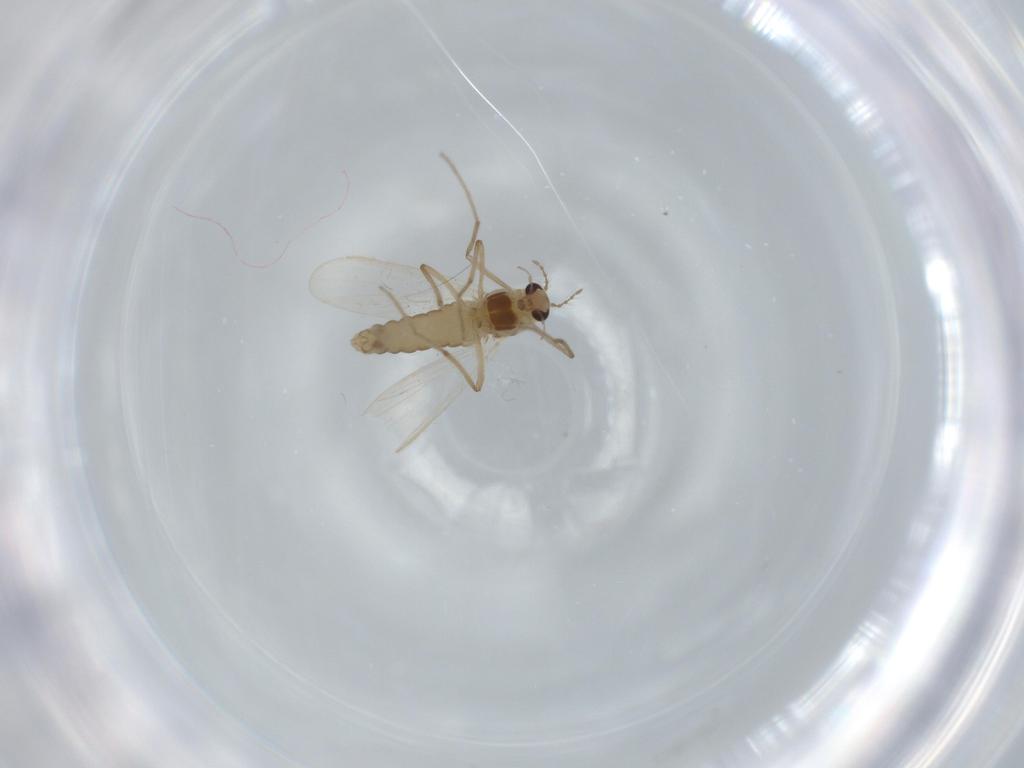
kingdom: Animalia
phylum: Arthropoda
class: Insecta
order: Diptera
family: Chironomidae
